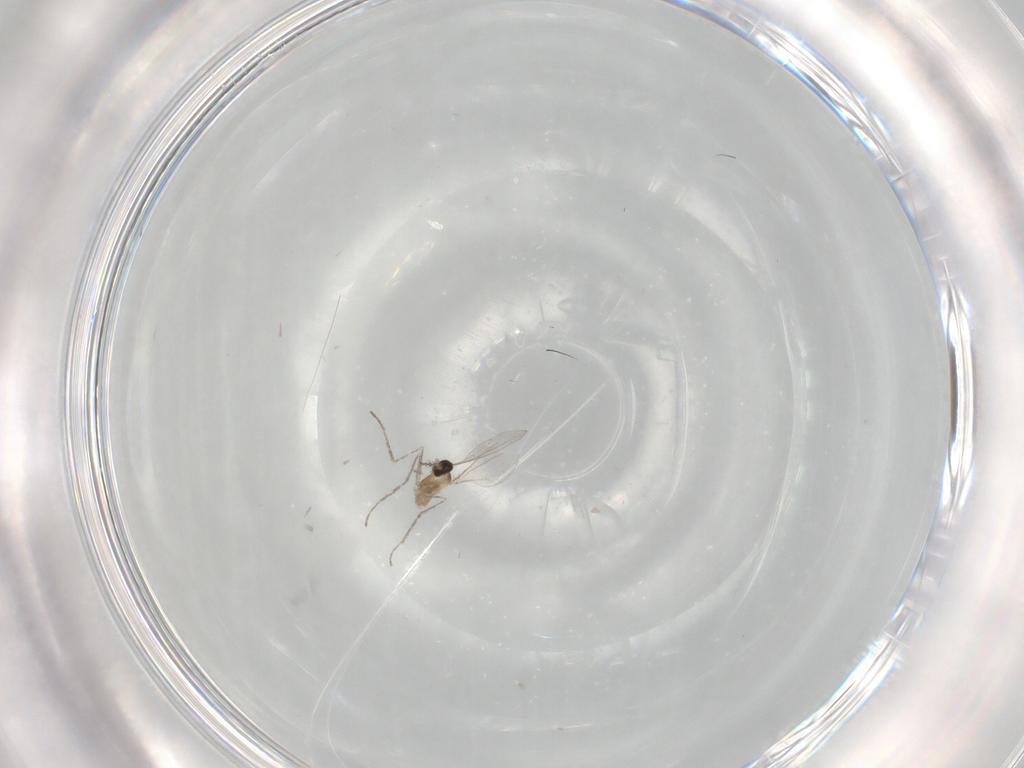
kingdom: Animalia
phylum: Arthropoda
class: Insecta
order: Diptera
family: Cecidomyiidae
